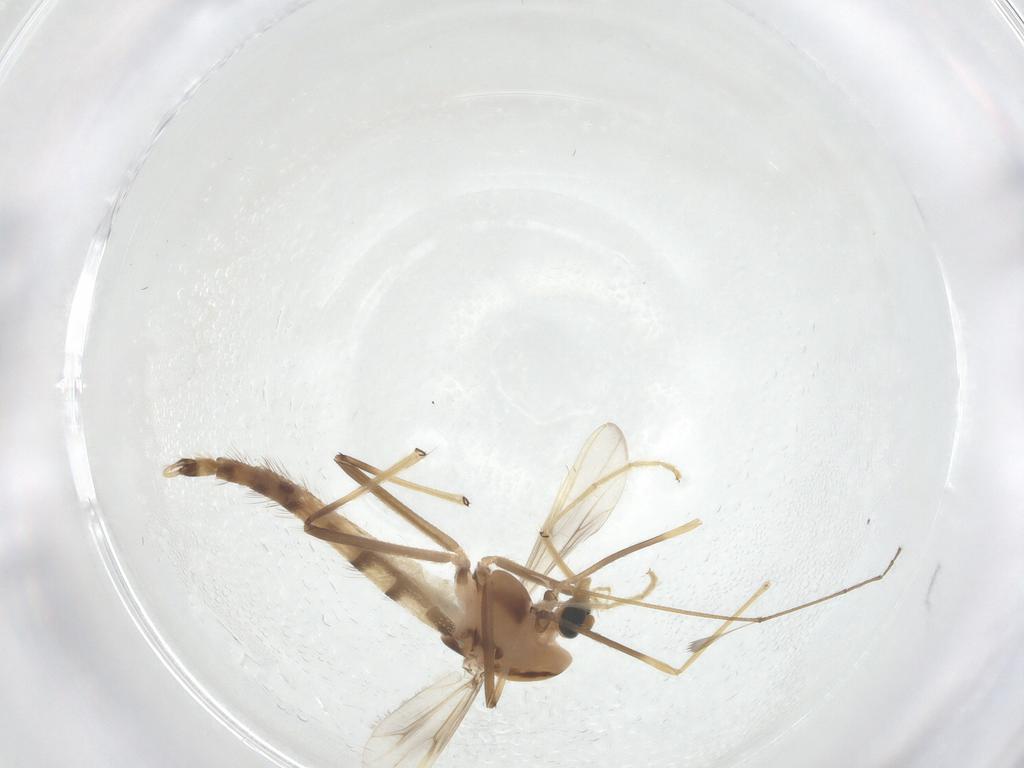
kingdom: Animalia
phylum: Arthropoda
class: Insecta
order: Diptera
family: Chironomidae
